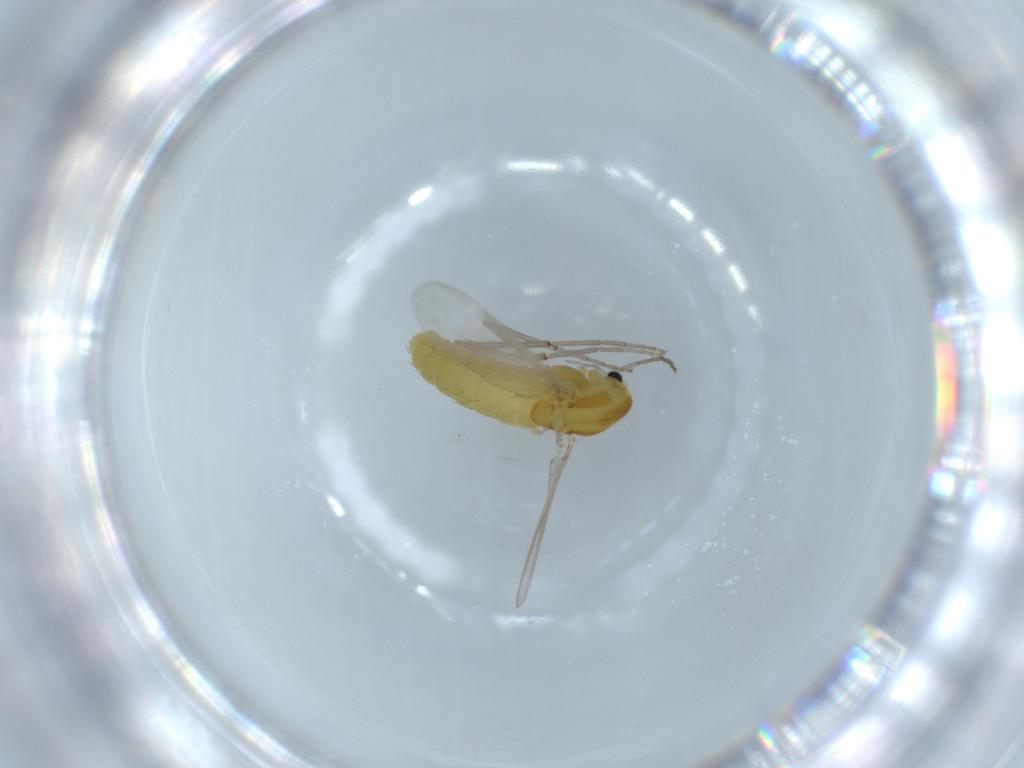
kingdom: Animalia
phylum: Arthropoda
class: Insecta
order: Diptera
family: Chironomidae
